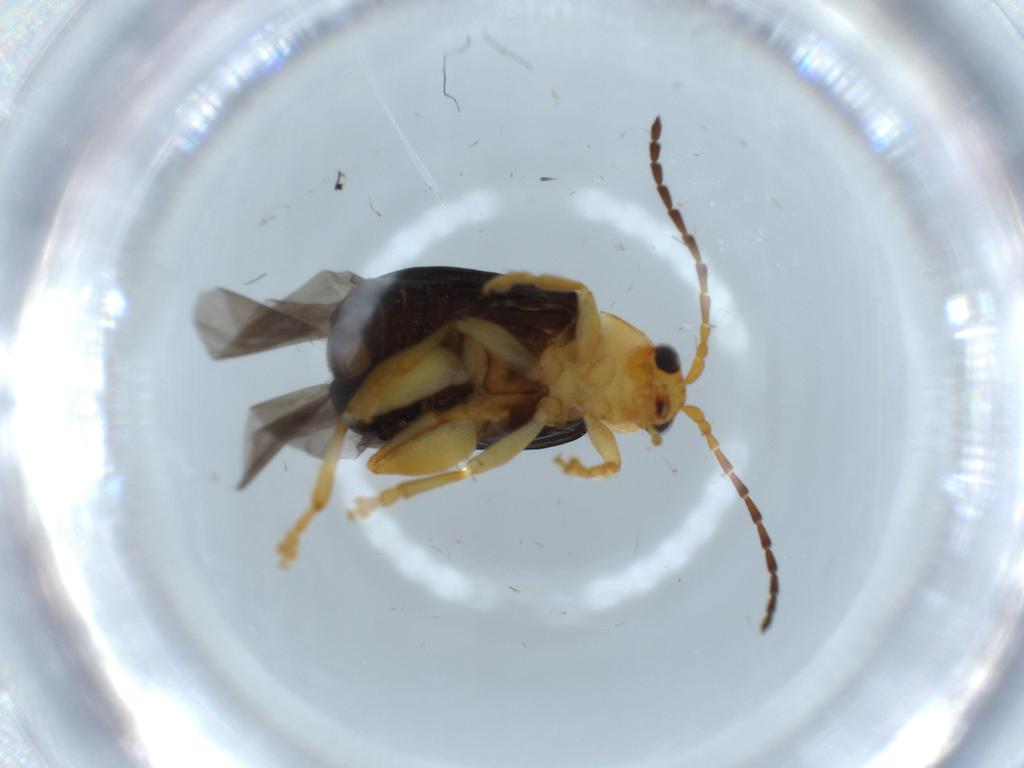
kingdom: Animalia
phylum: Arthropoda
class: Insecta
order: Coleoptera
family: Chrysomelidae
